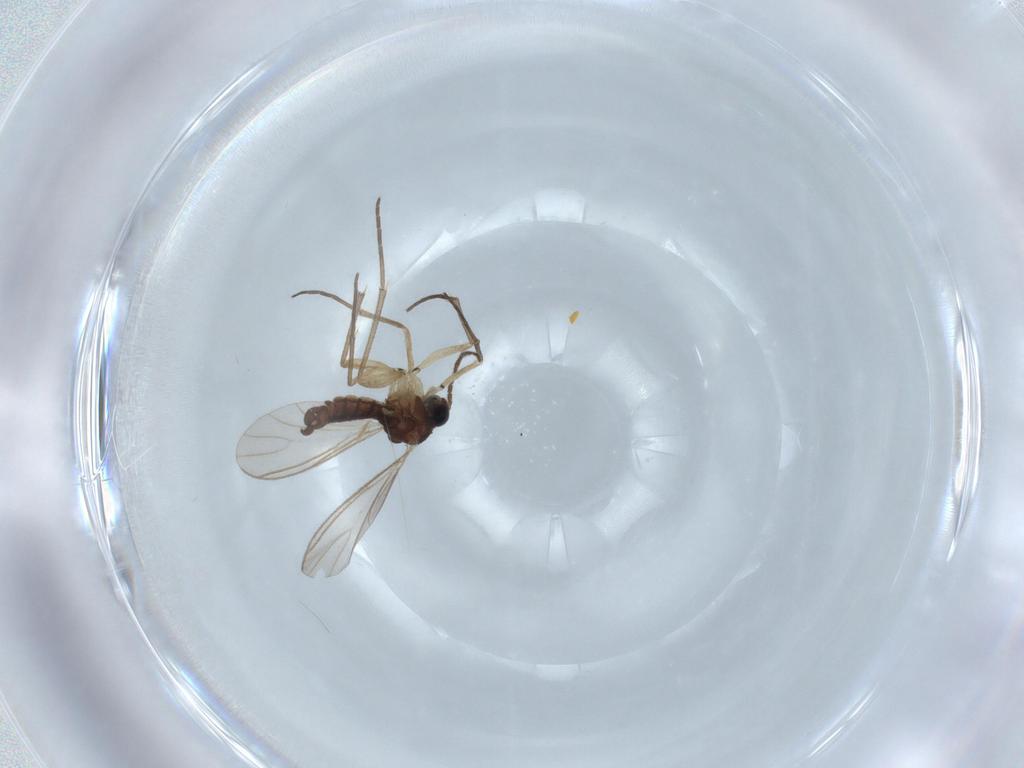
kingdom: Animalia
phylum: Arthropoda
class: Insecta
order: Diptera
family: Sciaridae
